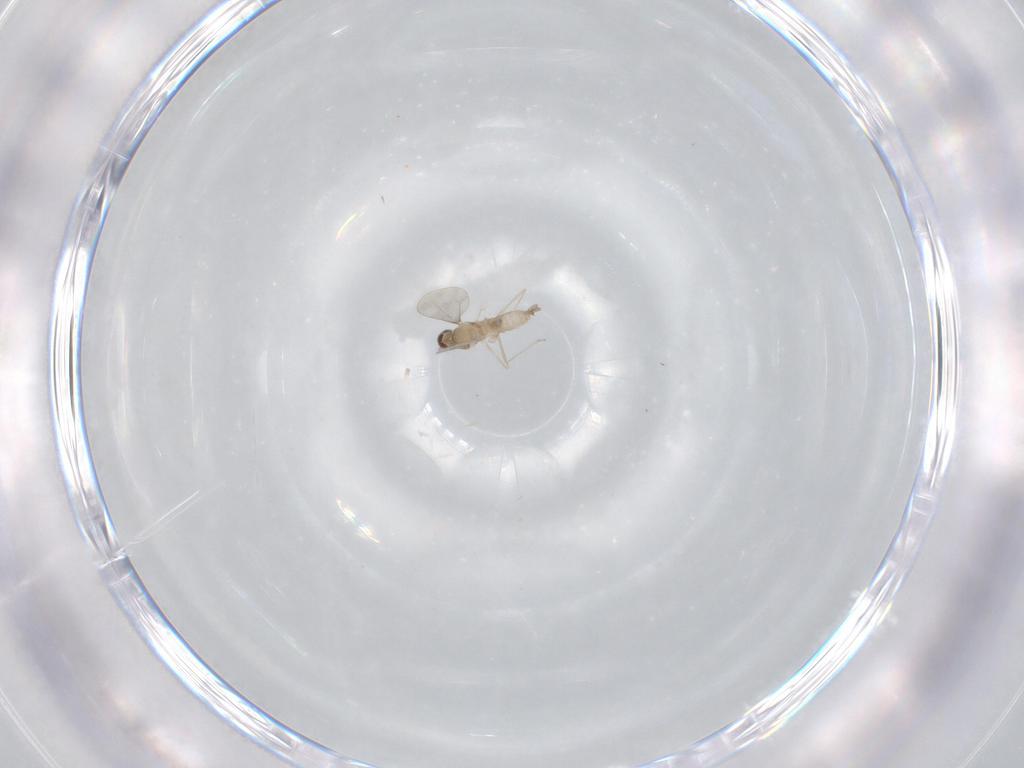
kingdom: Animalia
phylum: Arthropoda
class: Insecta
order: Diptera
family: Cecidomyiidae
